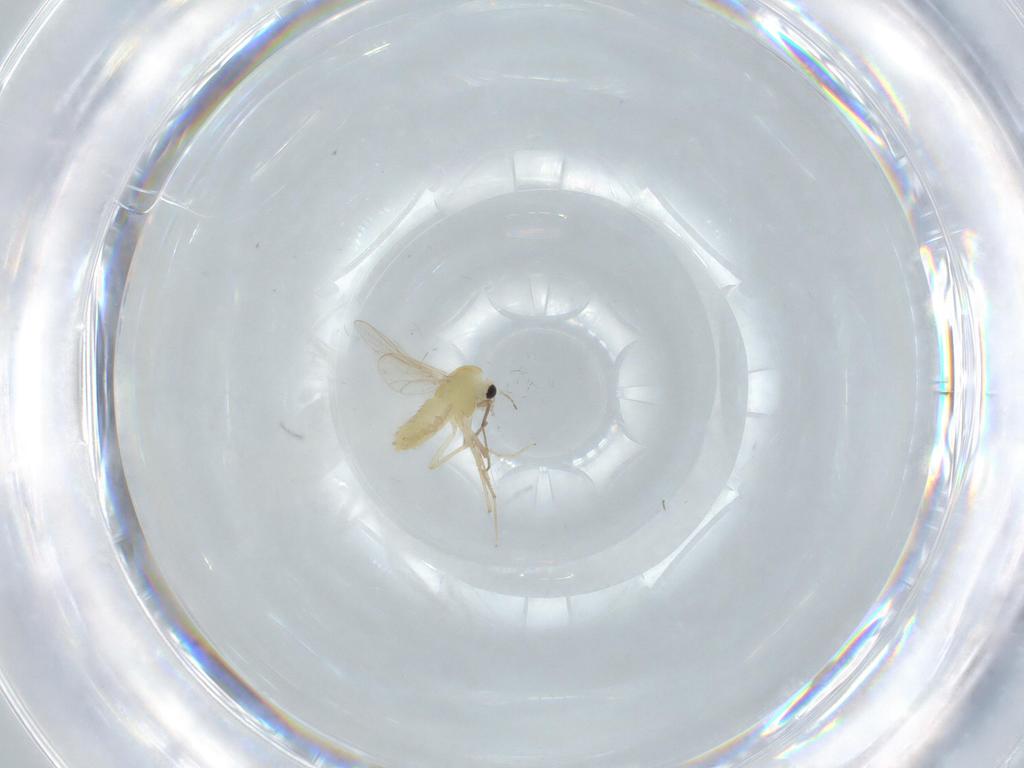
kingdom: Animalia
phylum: Arthropoda
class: Insecta
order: Diptera
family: Chironomidae
